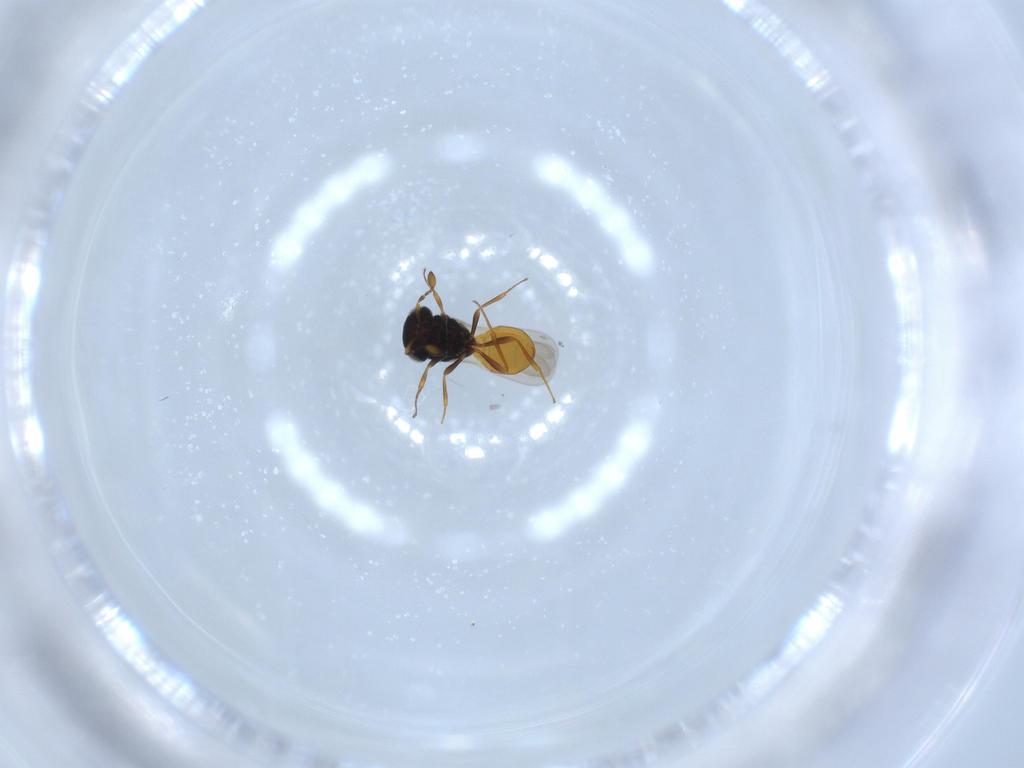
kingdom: Animalia
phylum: Arthropoda
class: Insecta
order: Hymenoptera
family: Scelionidae
